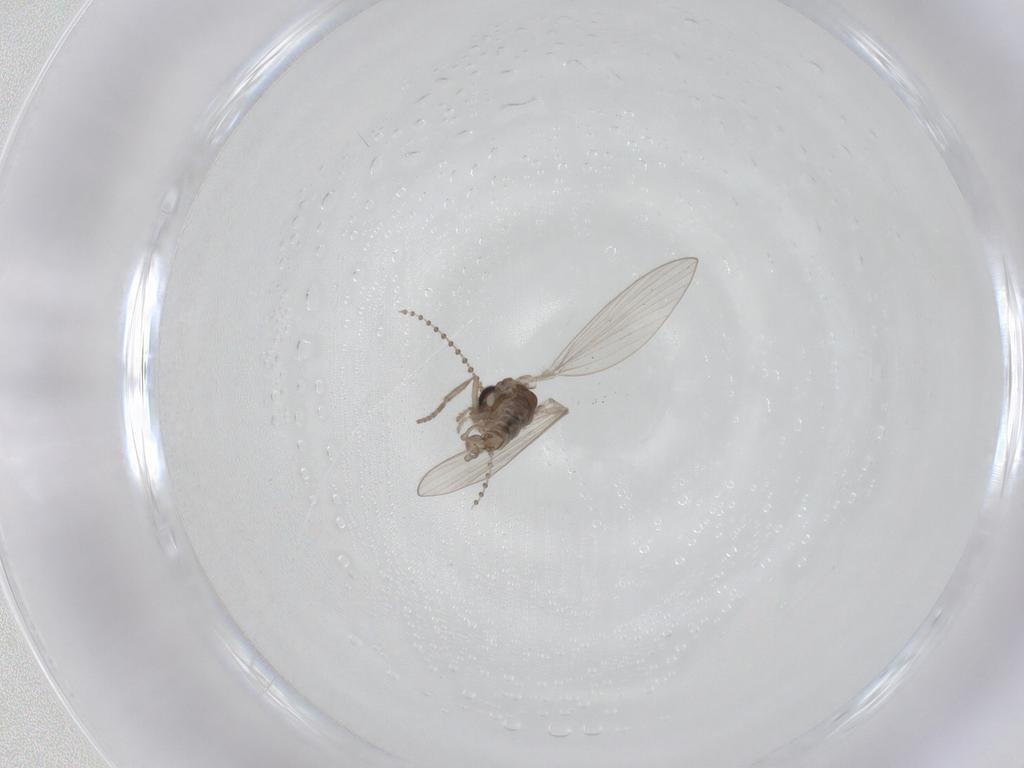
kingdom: Animalia
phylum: Arthropoda
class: Insecta
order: Diptera
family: Psychodidae
